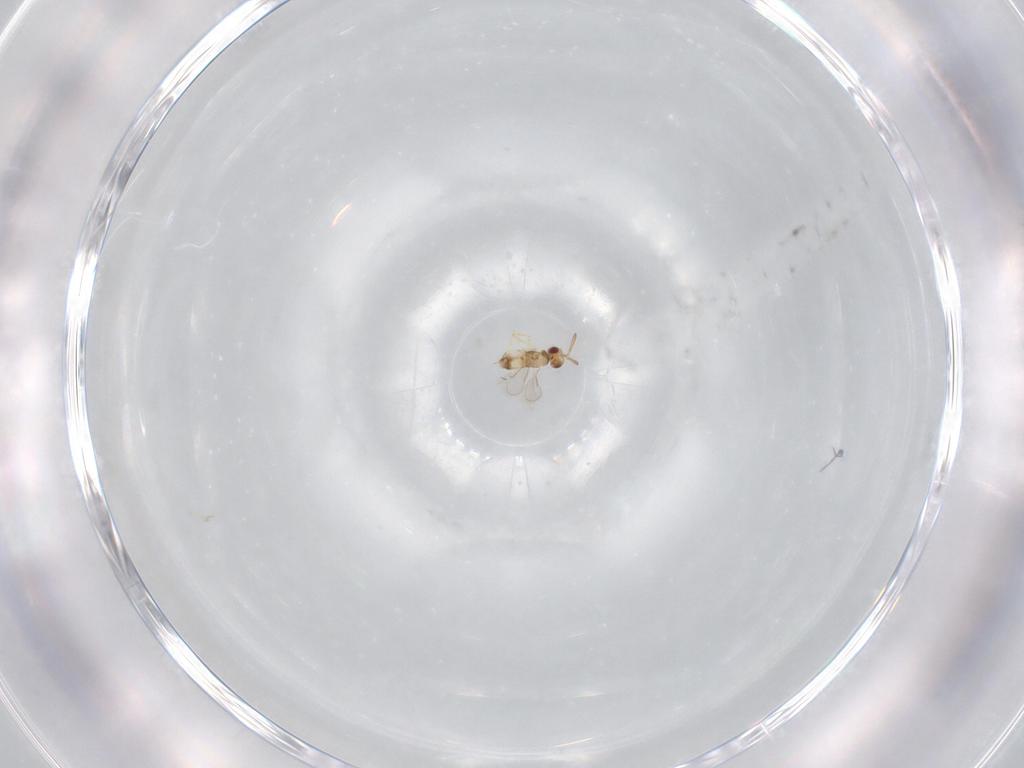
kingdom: Animalia
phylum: Arthropoda
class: Insecta
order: Hymenoptera
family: Aphelinidae
